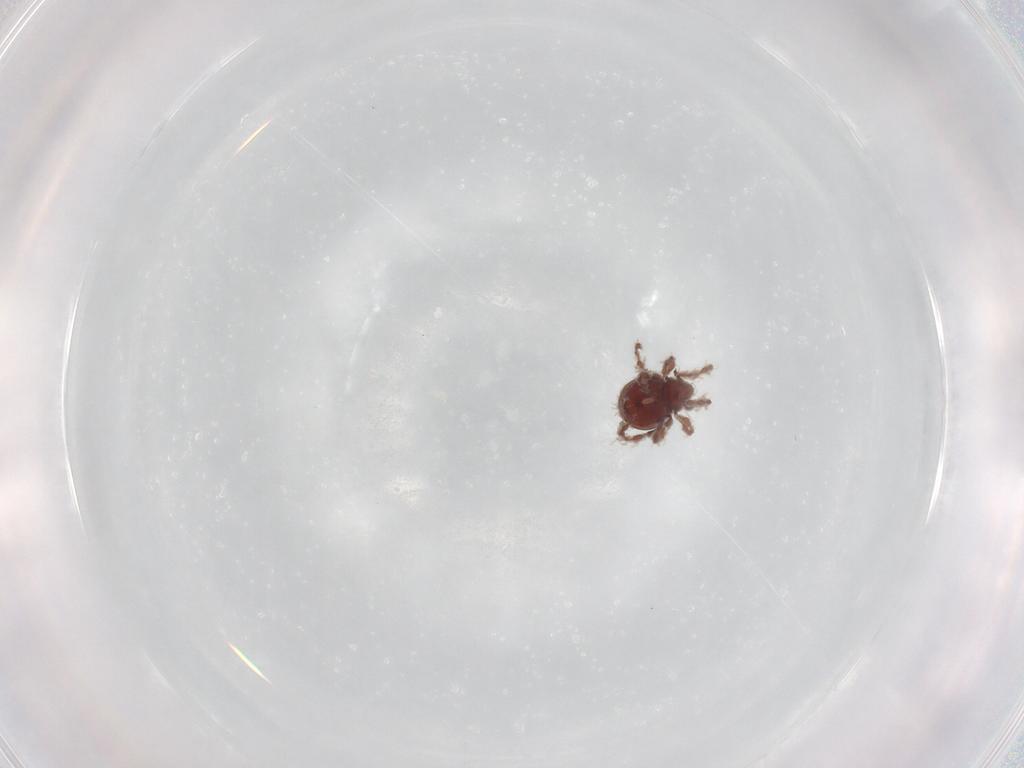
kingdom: Animalia
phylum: Arthropoda
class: Arachnida
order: Sarcoptiformes
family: Damaeidae
